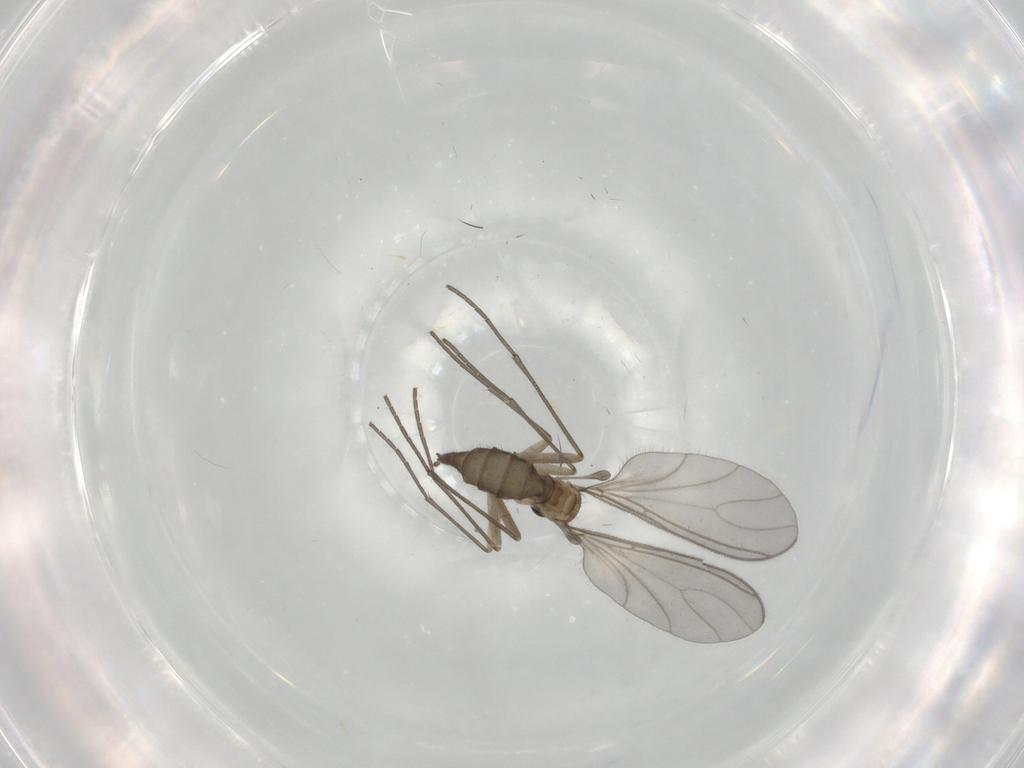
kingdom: Animalia
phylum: Arthropoda
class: Insecta
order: Diptera
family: Sciaridae
